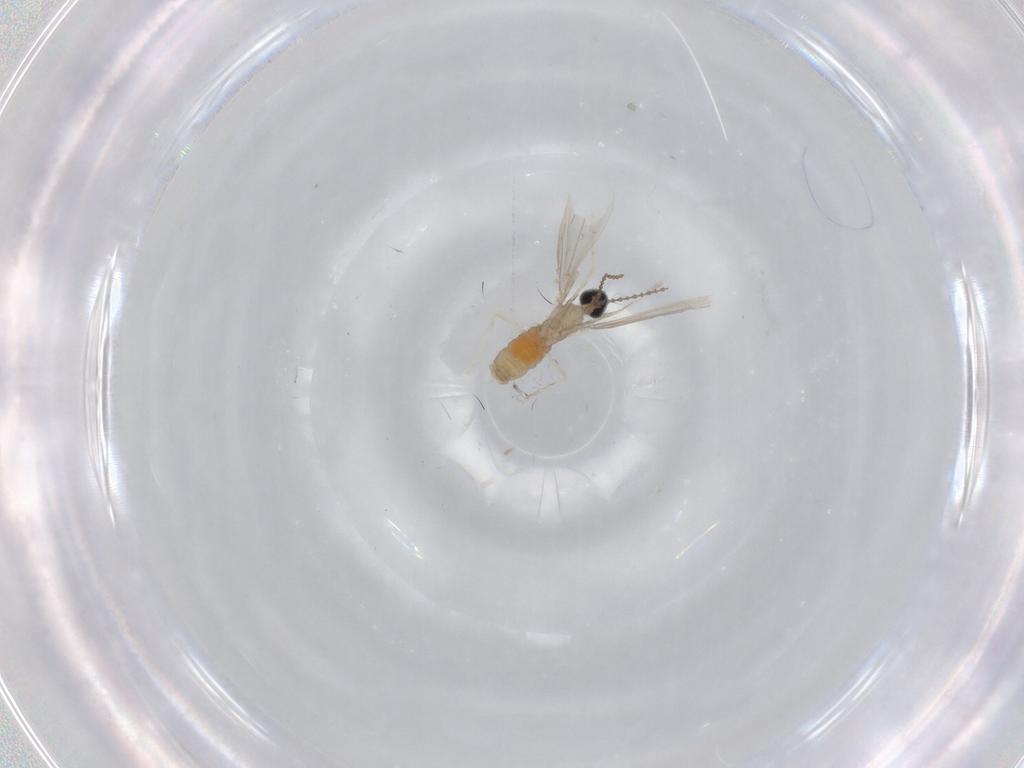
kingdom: Animalia
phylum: Arthropoda
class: Insecta
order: Diptera
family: Cecidomyiidae
